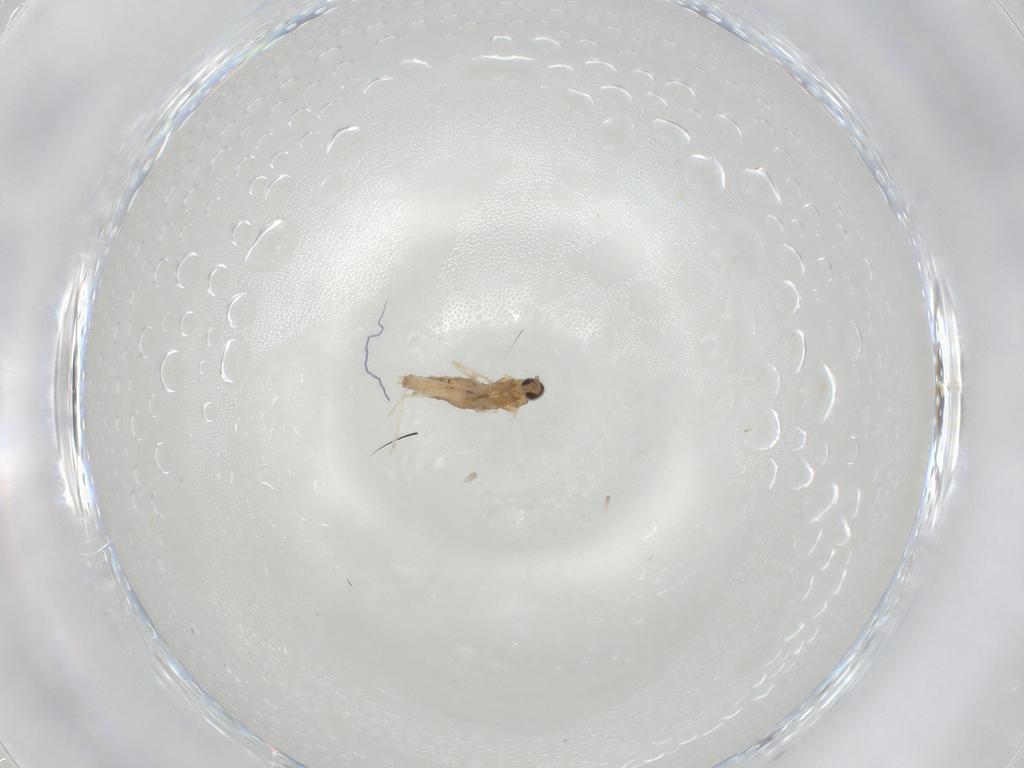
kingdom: Animalia
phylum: Arthropoda
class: Insecta
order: Diptera
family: Cecidomyiidae
